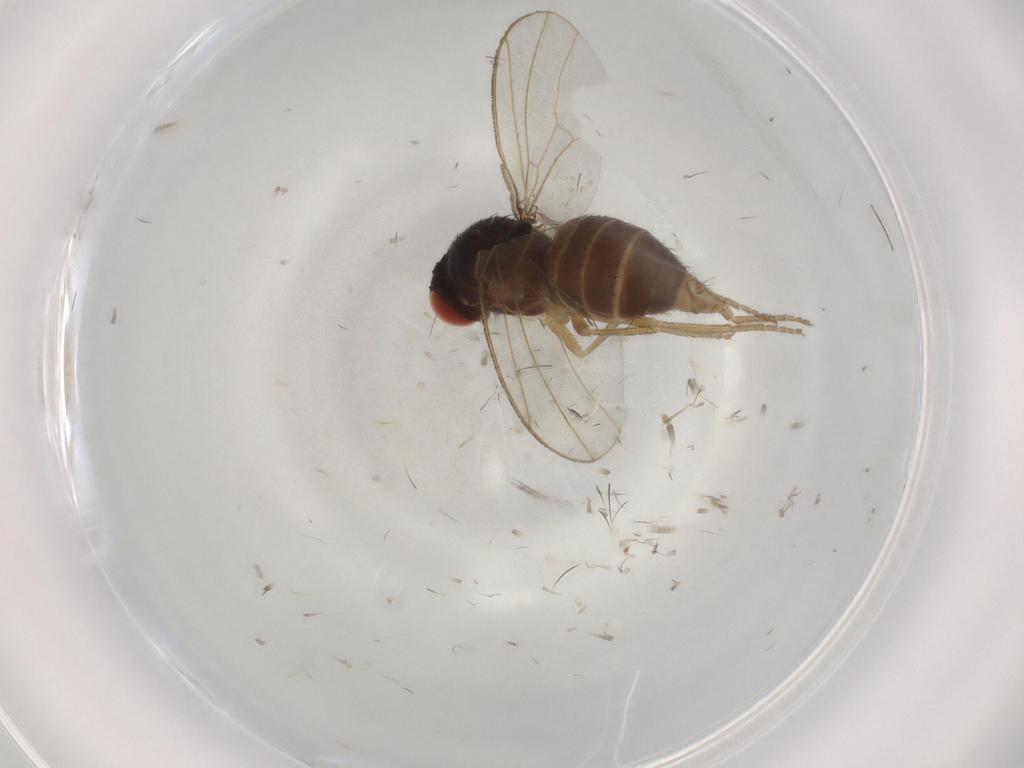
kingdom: Animalia
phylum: Arthropoda
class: Insecta
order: Diptera
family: Drosophilidae
